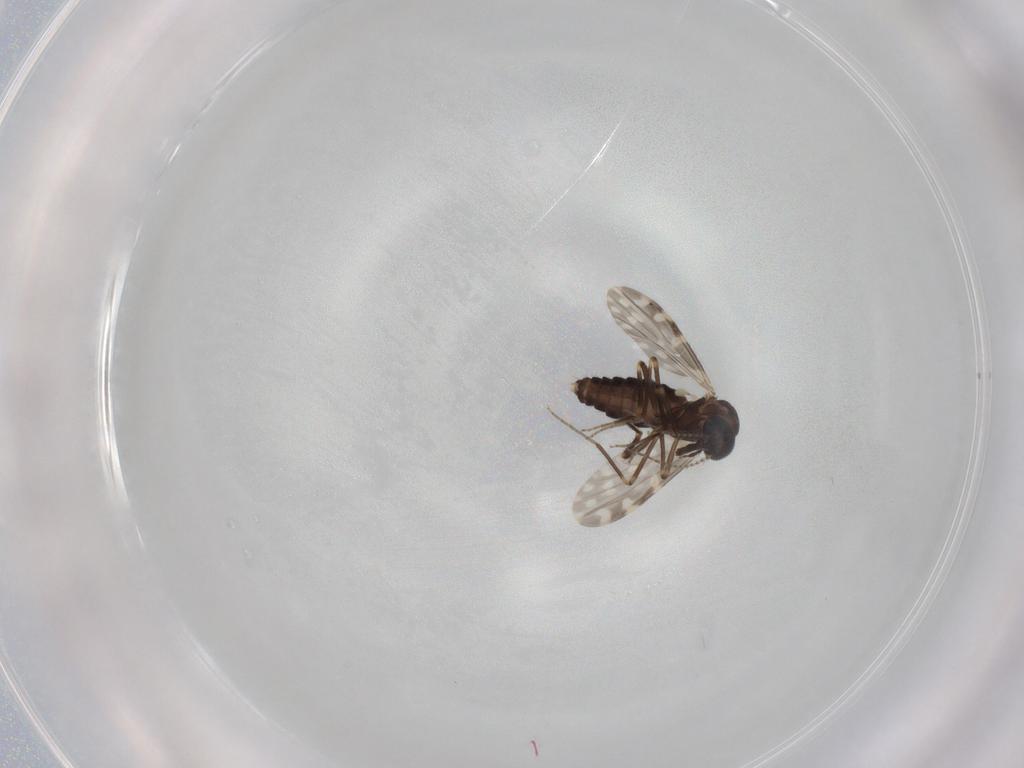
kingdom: Animalia
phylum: Arthropoda
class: Insecta
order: Diptera
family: Ceratopogonidae
